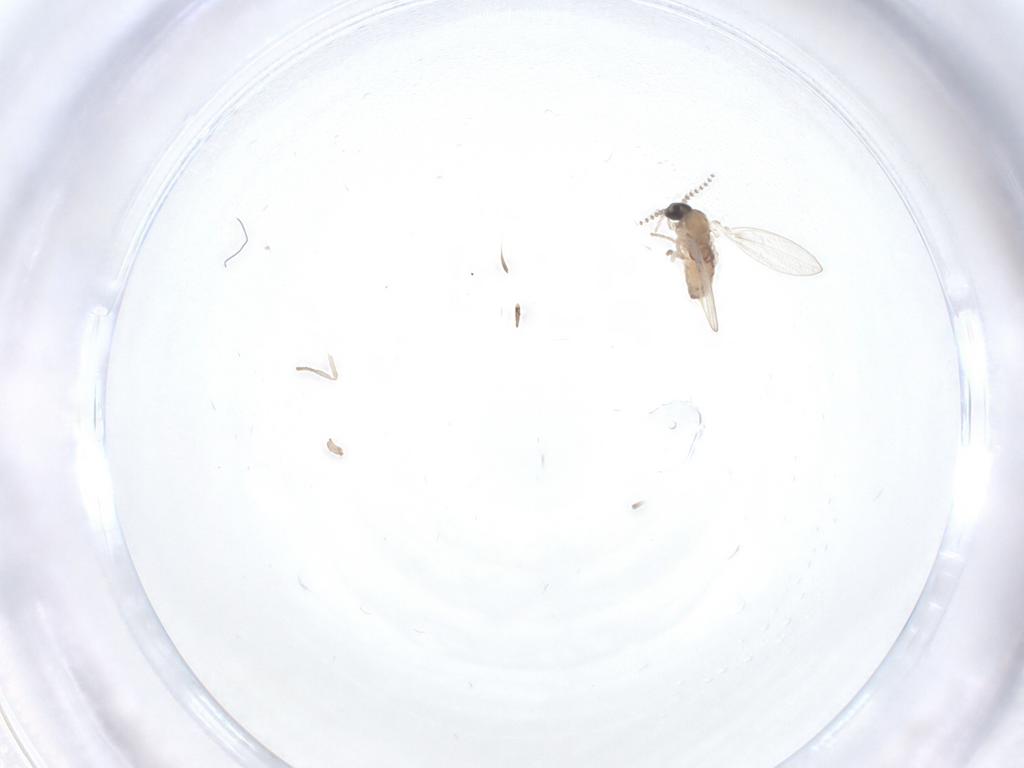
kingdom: Animalia
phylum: Arthropoda
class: Insecta
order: Diptera
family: Psychodidae
